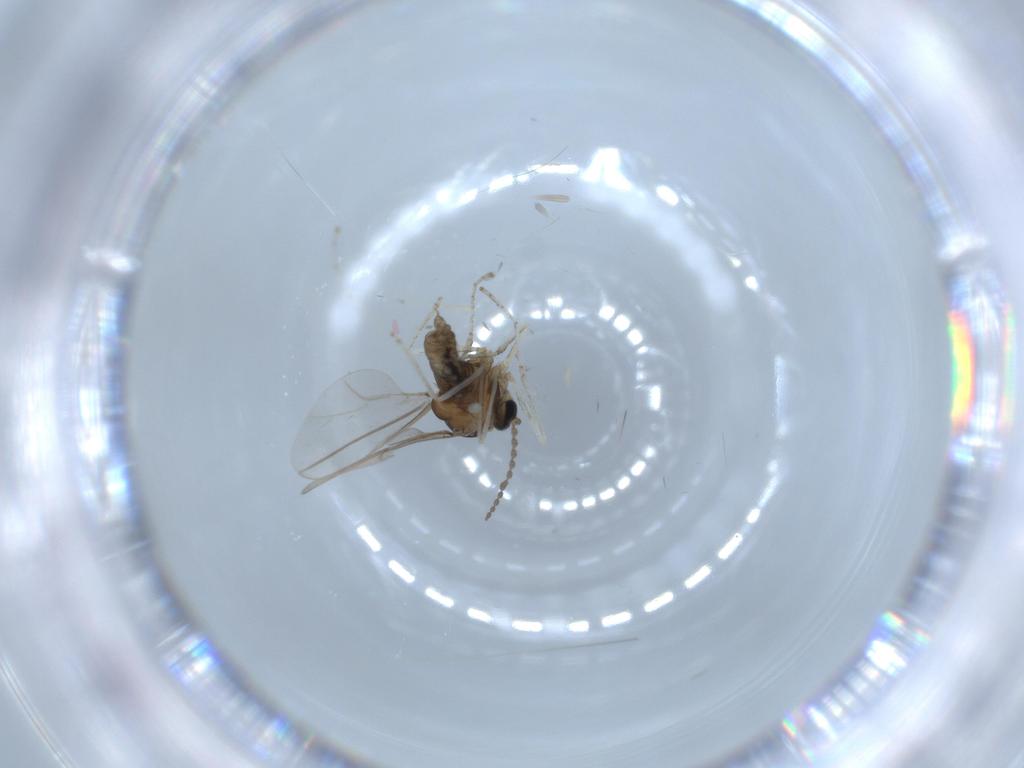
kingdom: Animalia
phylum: Arthropoda
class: Insecta
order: Diptera
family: Cecidomyiidae
